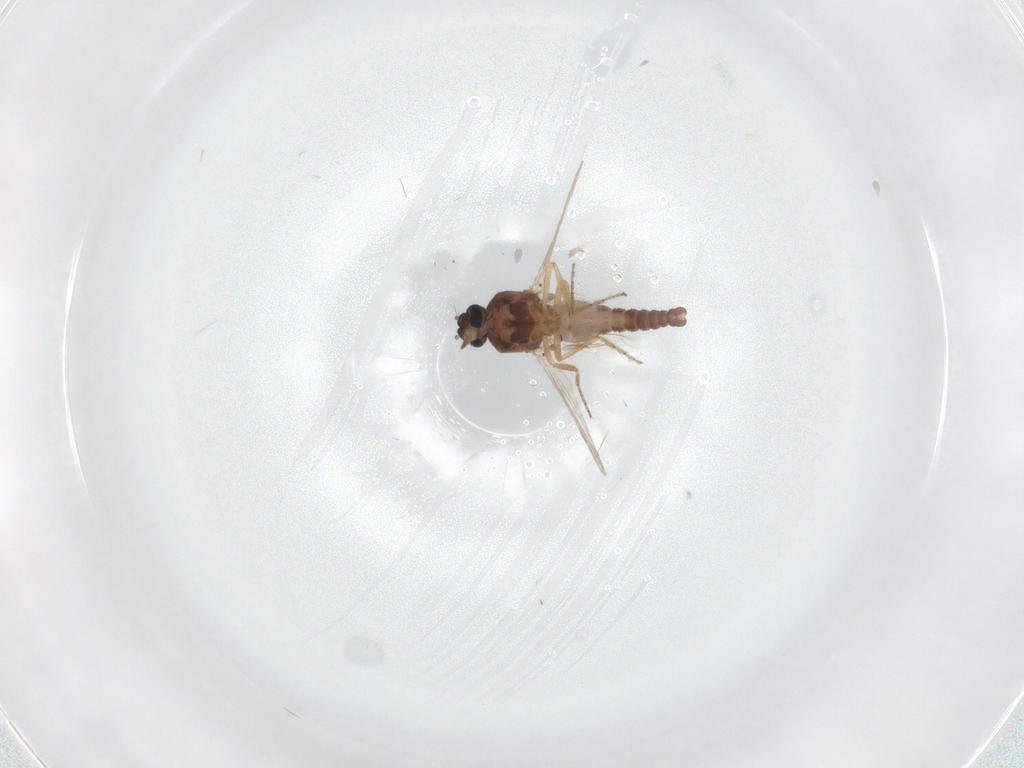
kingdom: Animalia
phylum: Arthropoda
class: Insecta
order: Diptera
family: Ceratopogonidae
